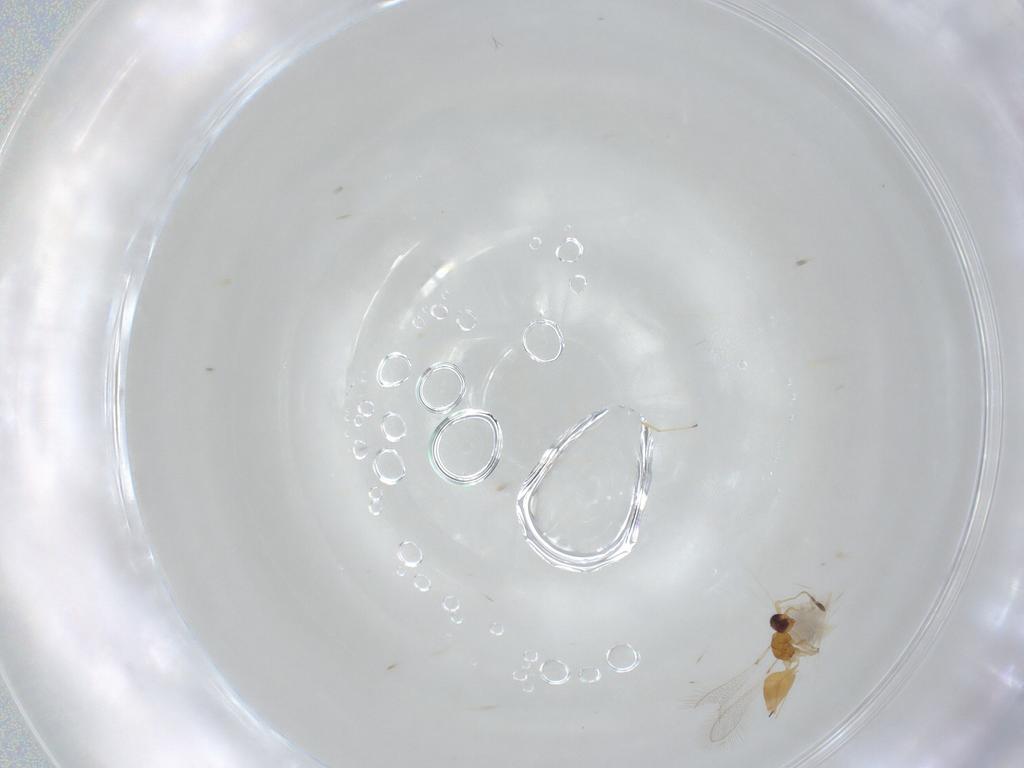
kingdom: Animalia
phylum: Arthropoda
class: Insecta
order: Hymenoptera
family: Mymaridae
